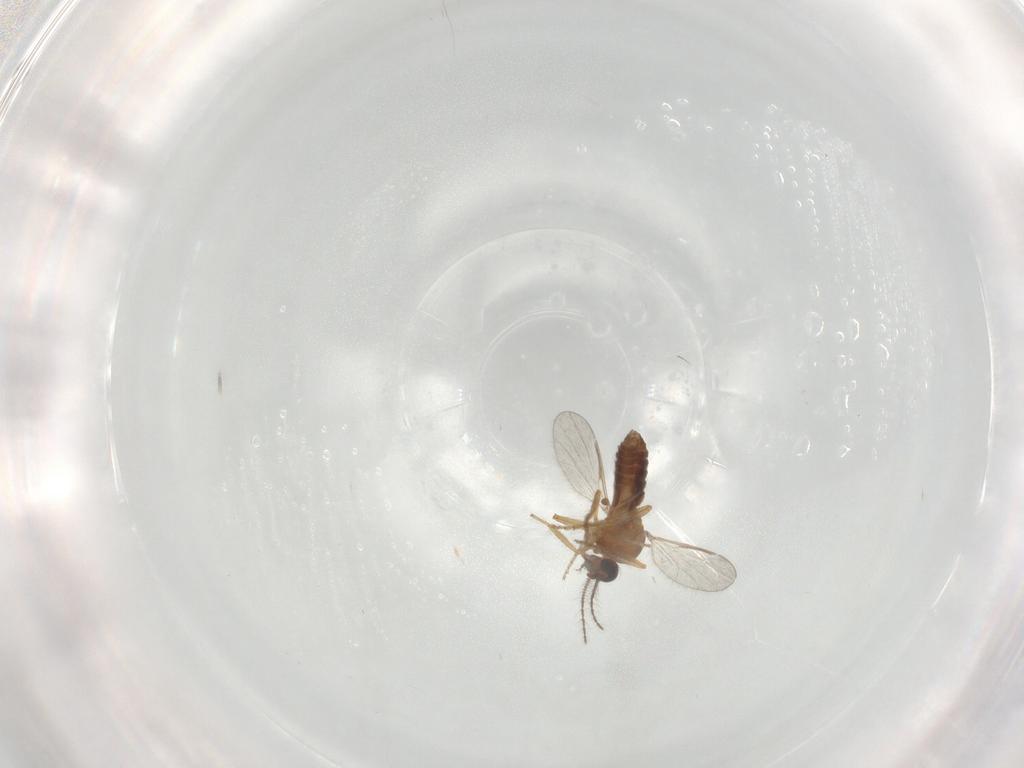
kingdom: Animalia
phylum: Arthropoda
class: Insecta
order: Diptera
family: Ceratopogonidae
